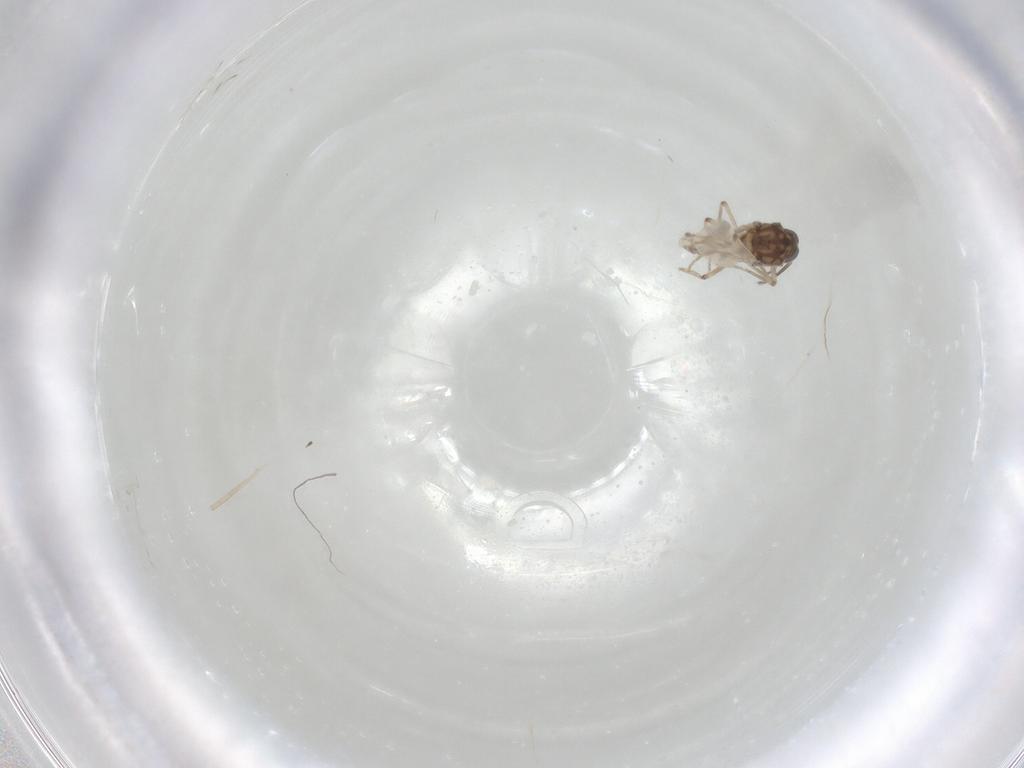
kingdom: Animalia
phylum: Arthropoda
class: Insecta
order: Diptera
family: Ceratopogonidae
